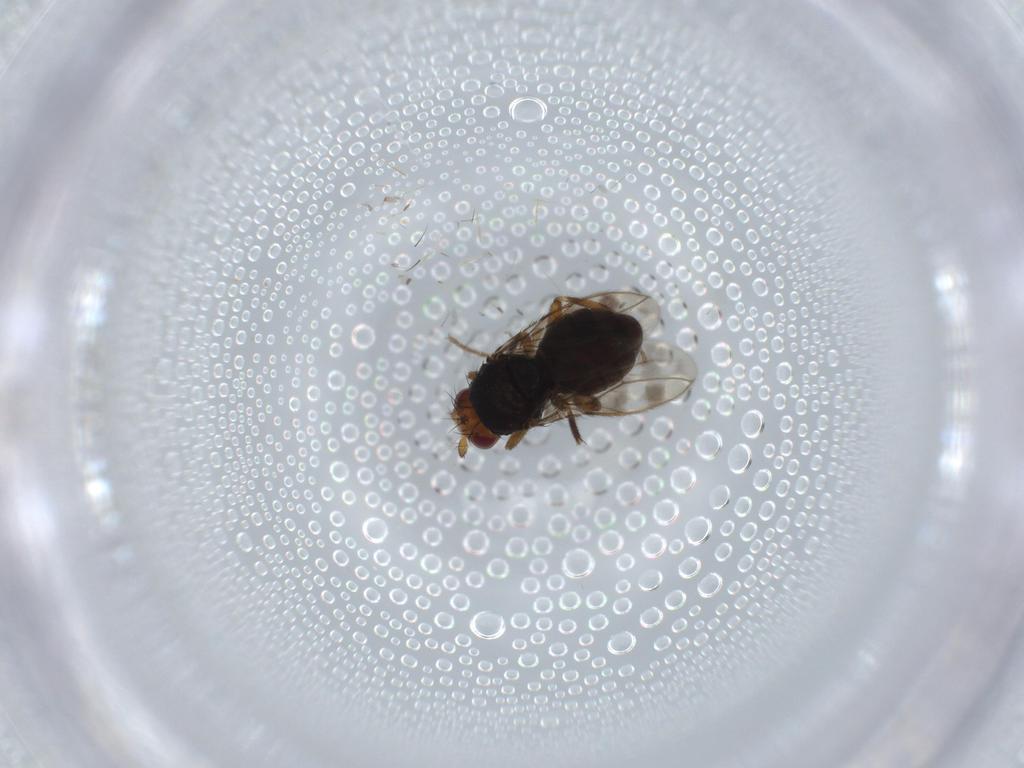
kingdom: Animalia
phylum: Arthropoda
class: Insecta
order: Diptera
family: Sphaeroceridae
